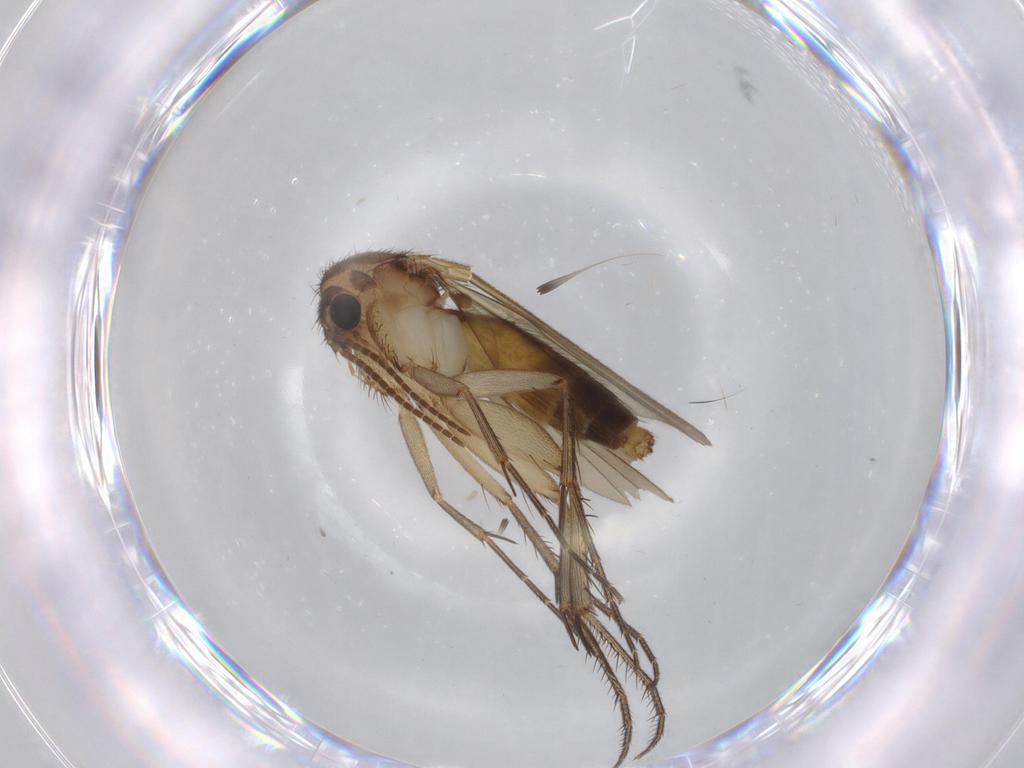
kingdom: Animalia
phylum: Arthropoda
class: Insecta
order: Diptera
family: Mycetophilidae
